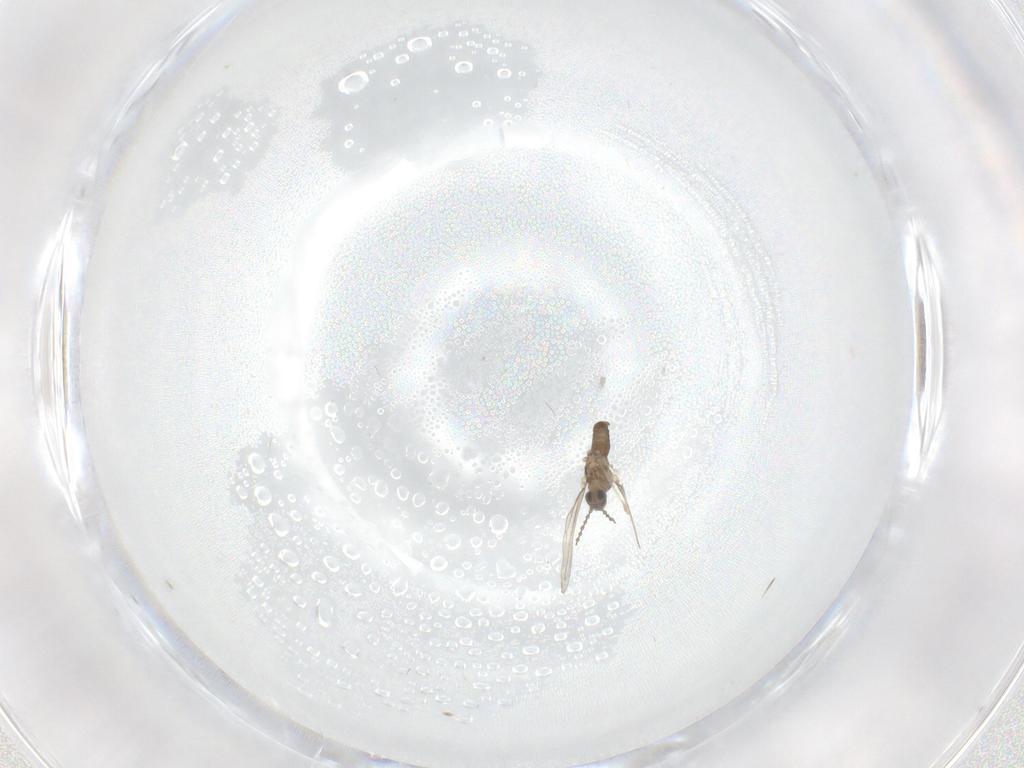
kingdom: Animalia
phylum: Arthropoda
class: Insecta
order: Diptera
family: Cecidomyiidae
